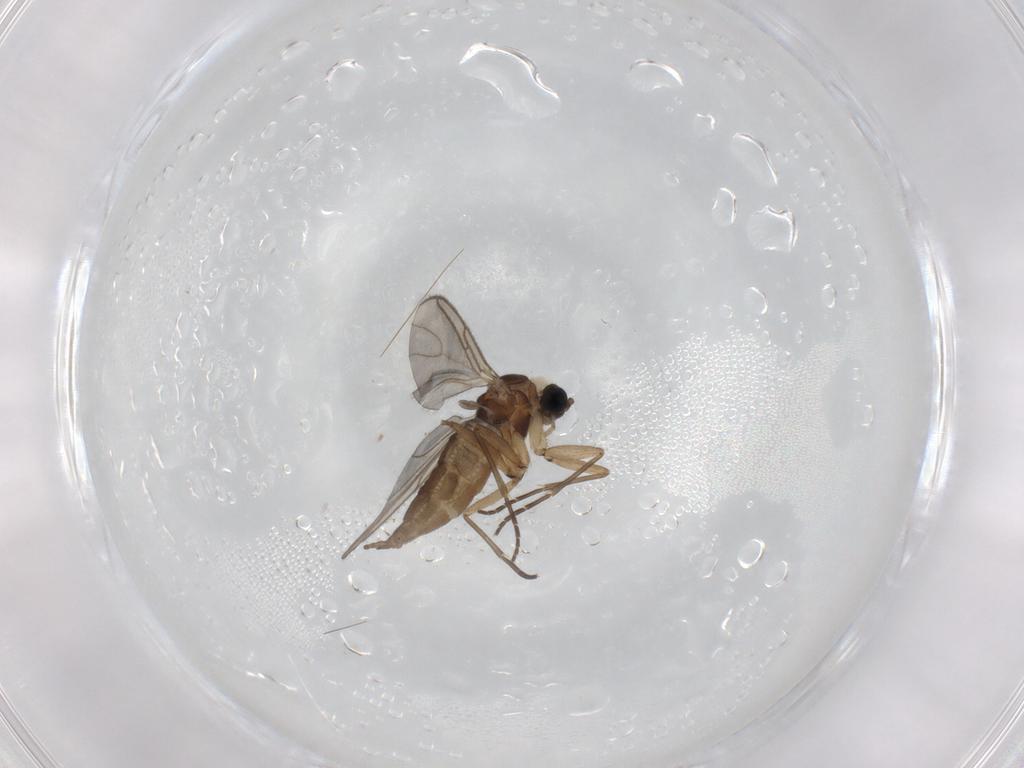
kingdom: Animalia
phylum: Arthropoda
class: Insecta
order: Diptera
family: Sciaridae
